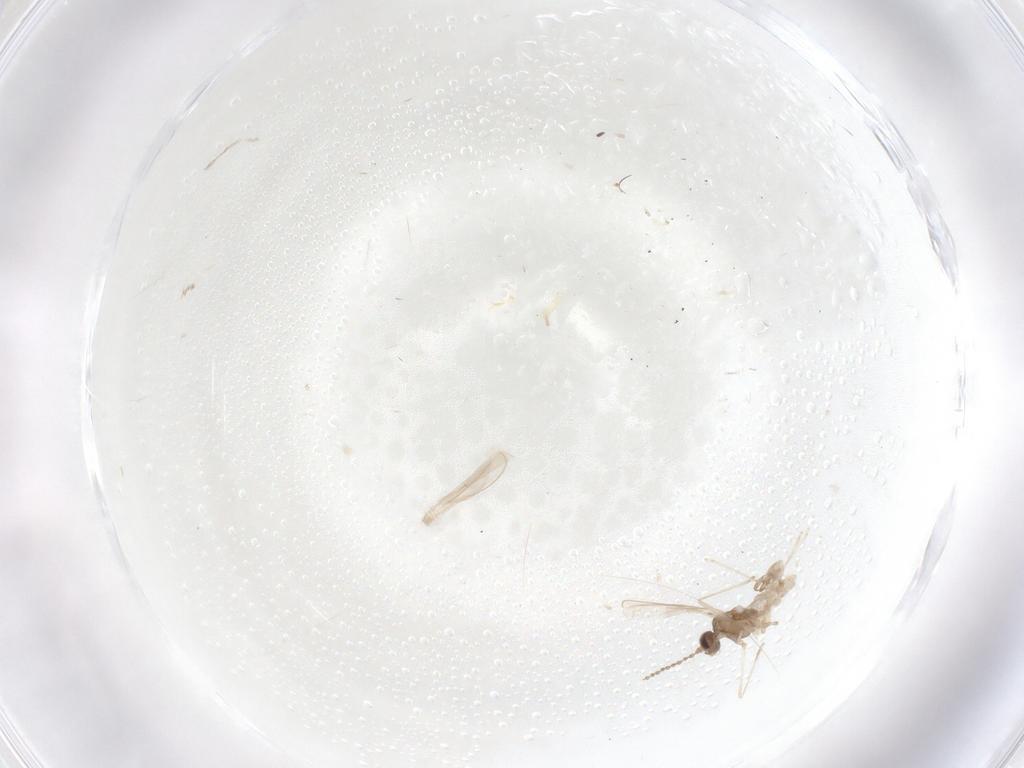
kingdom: Animalia
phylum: Arthropoda
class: Insecta
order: Diptera
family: Cecidomyiidae
